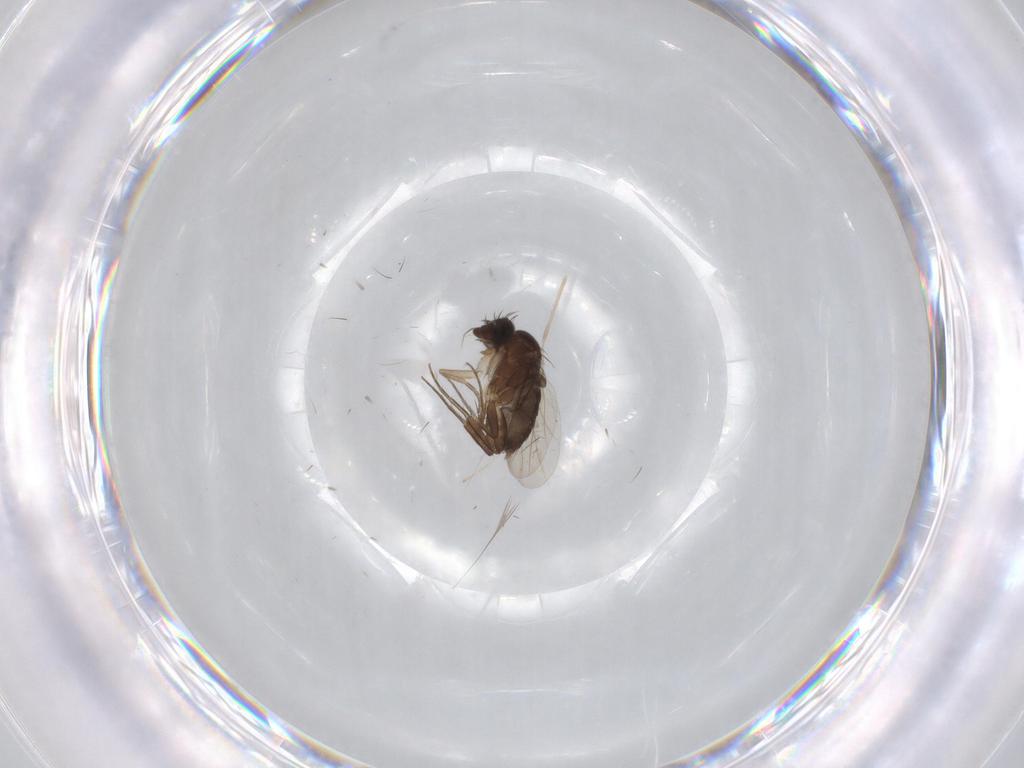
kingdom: Animalia
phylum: Arthropoda
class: Insecta
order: Diptera
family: Phoridae
